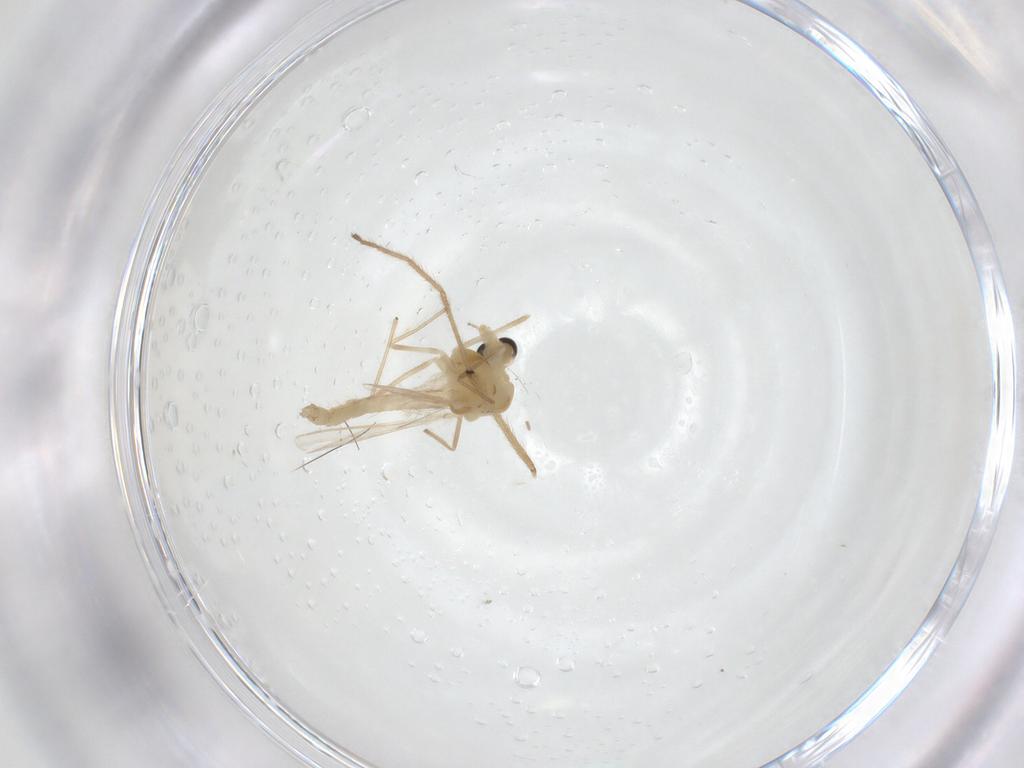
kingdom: Animalia
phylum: Arthropoda
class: Insecta
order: Diptera
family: Chironomidae
